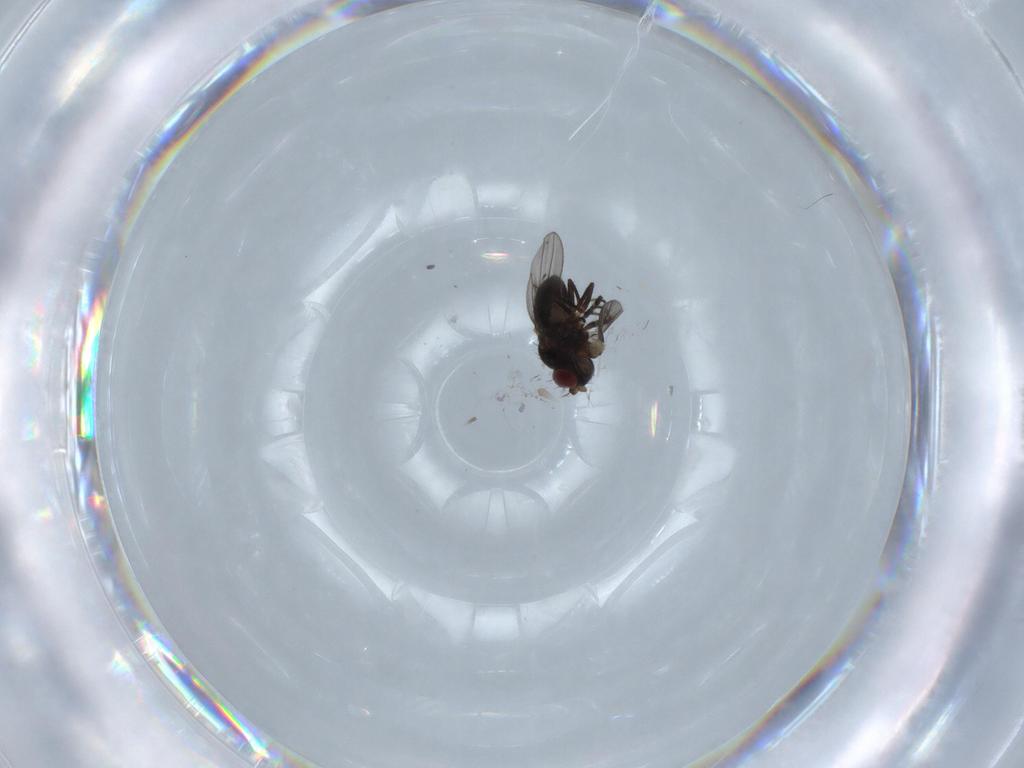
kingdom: Animalia
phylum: Arthropoda
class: Insecta
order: Diptera
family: Ephydridae
